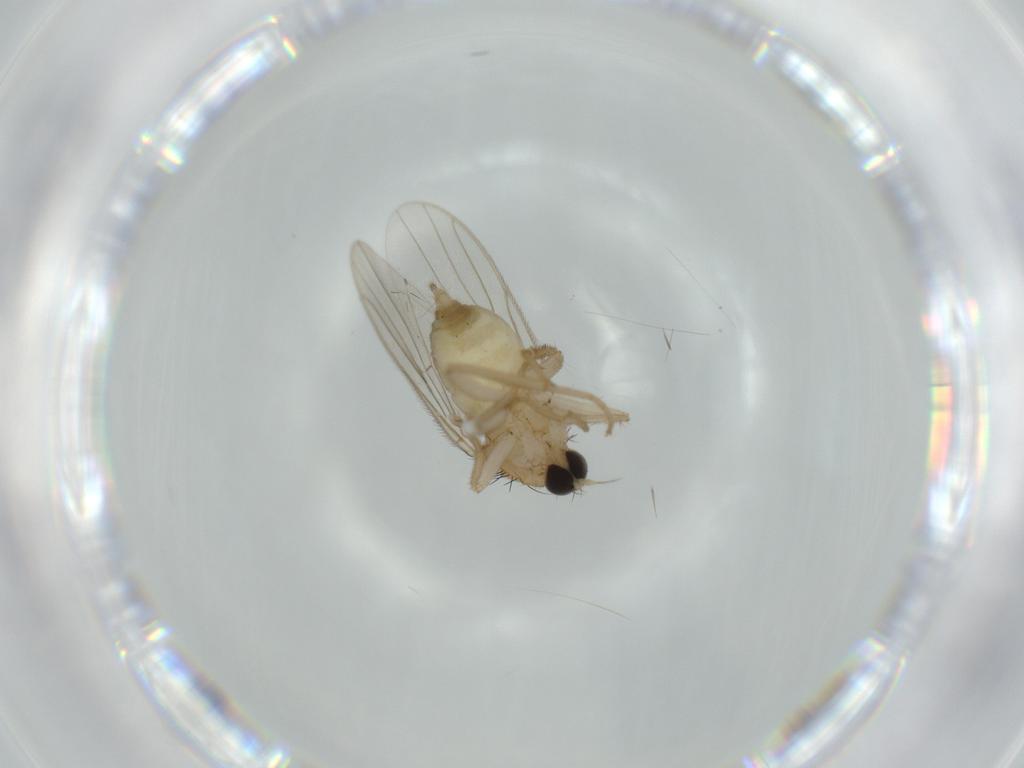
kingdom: Animalia
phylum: Arthropoda
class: Insecta
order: Diptera
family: Hybotidae
